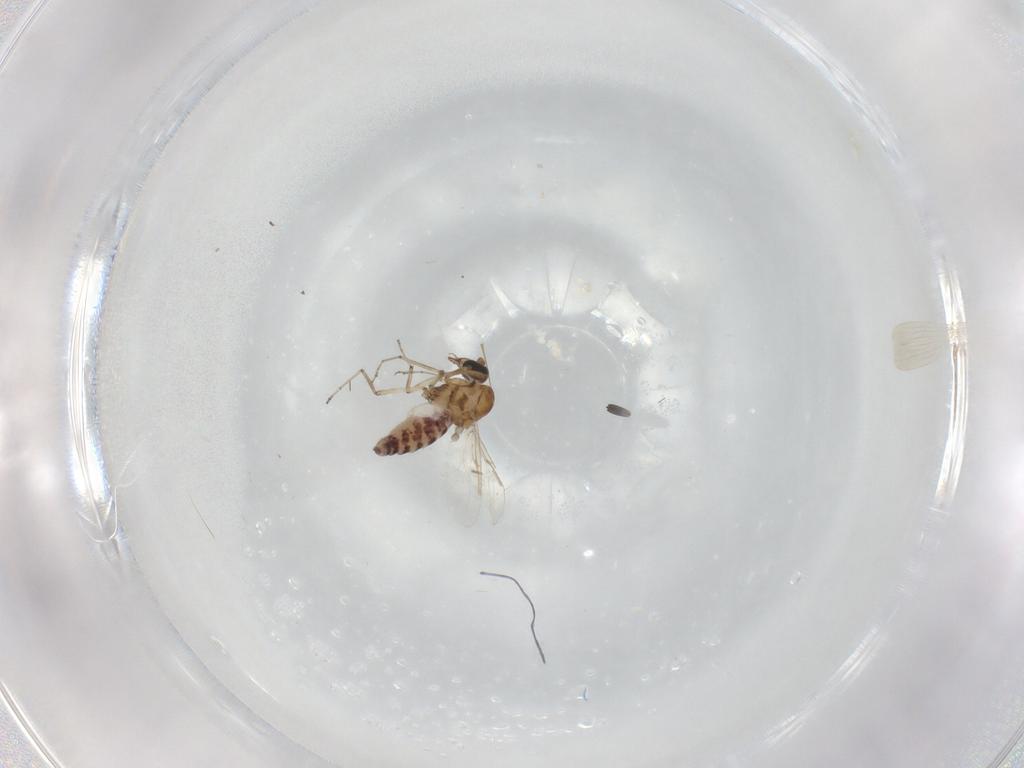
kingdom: Animalia
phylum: Arthropoda
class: Insecta
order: Diptera
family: Ceratopogonidae
